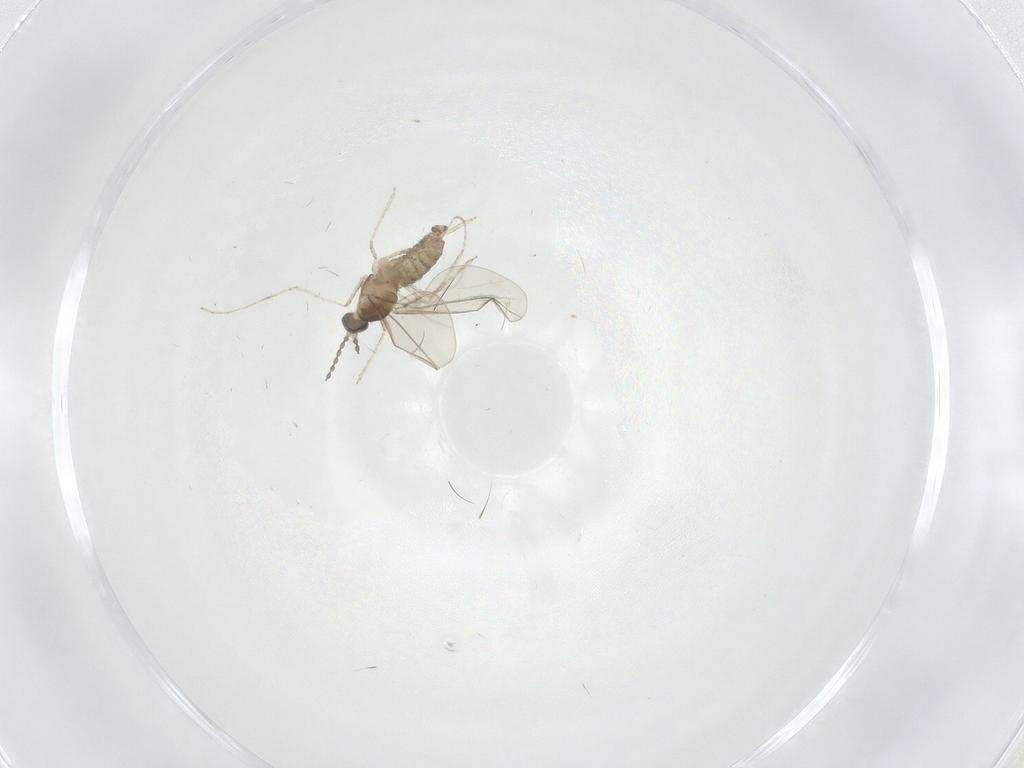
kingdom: Animalia
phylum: Arthropoda
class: Insecta
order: Diptera
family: Cecidomyiidae
